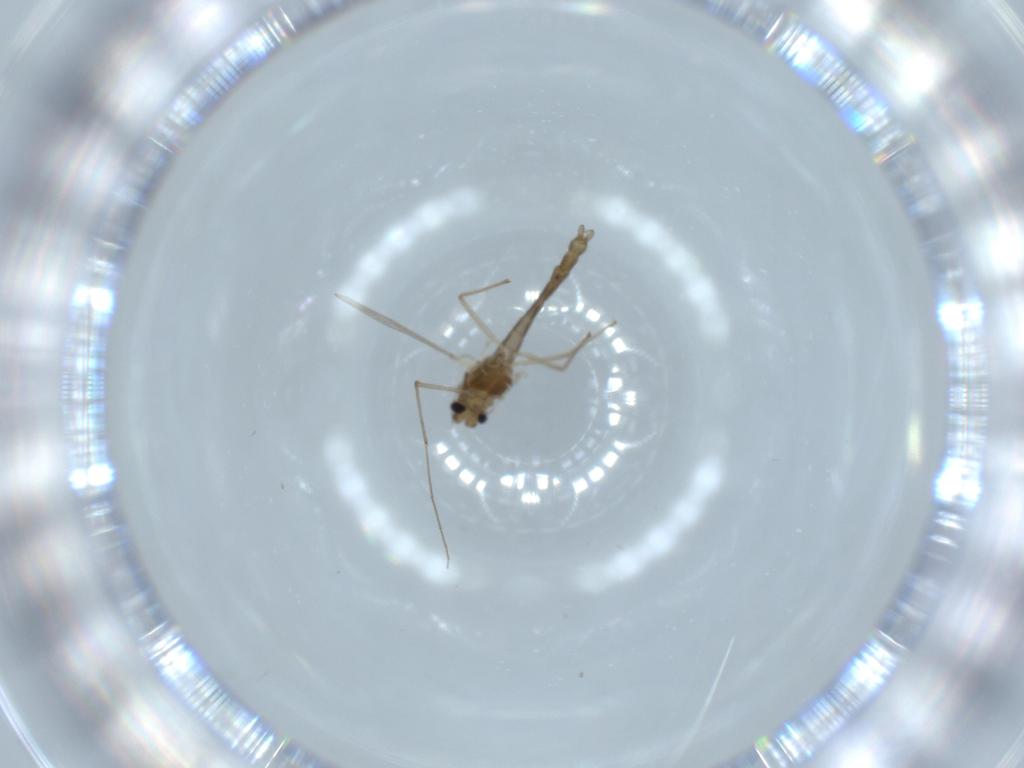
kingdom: Animalia
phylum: Arthropoda
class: Insecta
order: Diptera
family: Chironomidae
